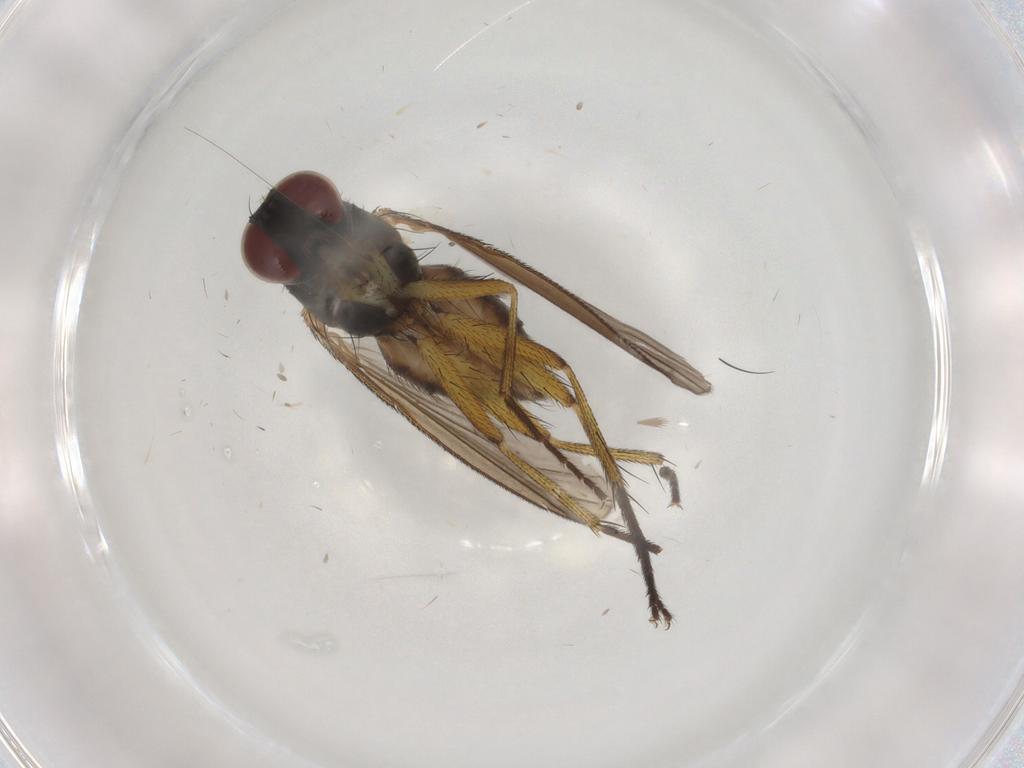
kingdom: Animalia
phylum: Arthropoda
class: Insecta
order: Diptera
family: Muscidae
